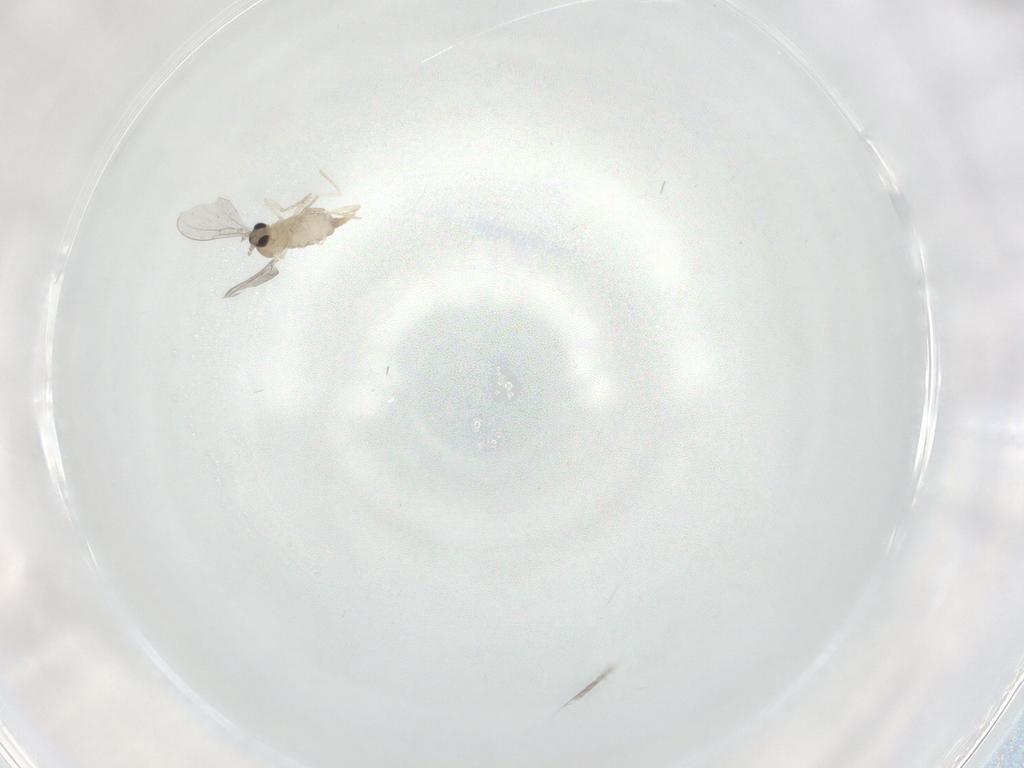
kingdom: Animalia
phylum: Arthropoda
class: Insecta
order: Diptera
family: Cecidomyiidae
